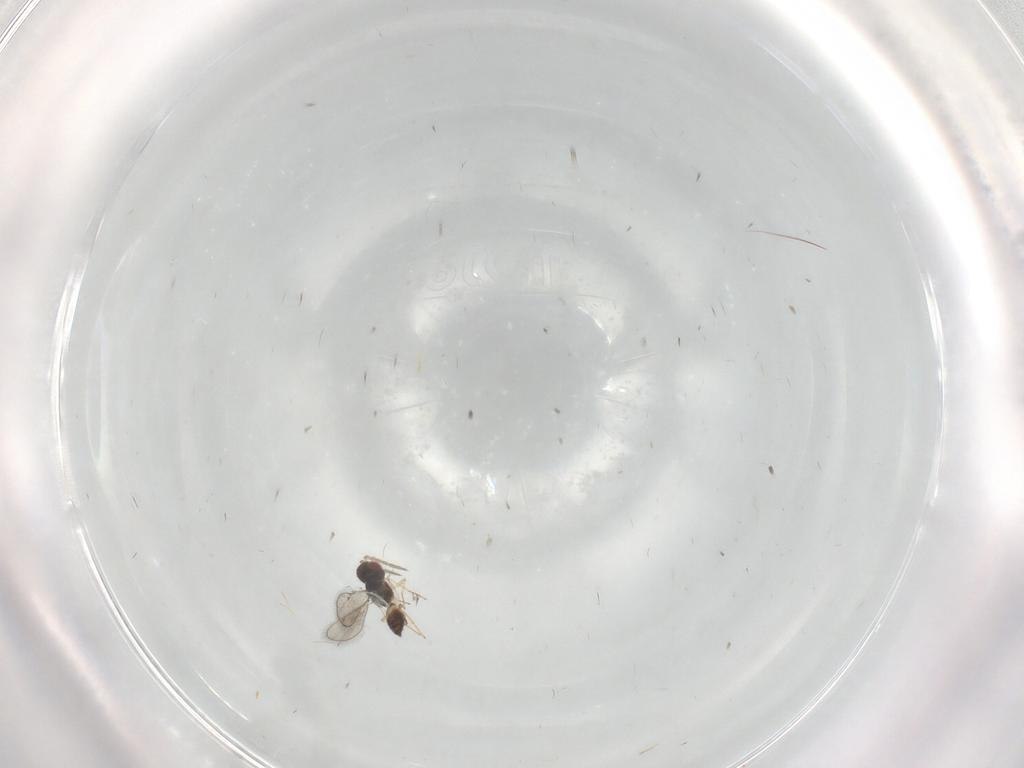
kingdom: Animalia
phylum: Arthropoda
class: Insecta
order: Hymenoptera
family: Eulophidae
